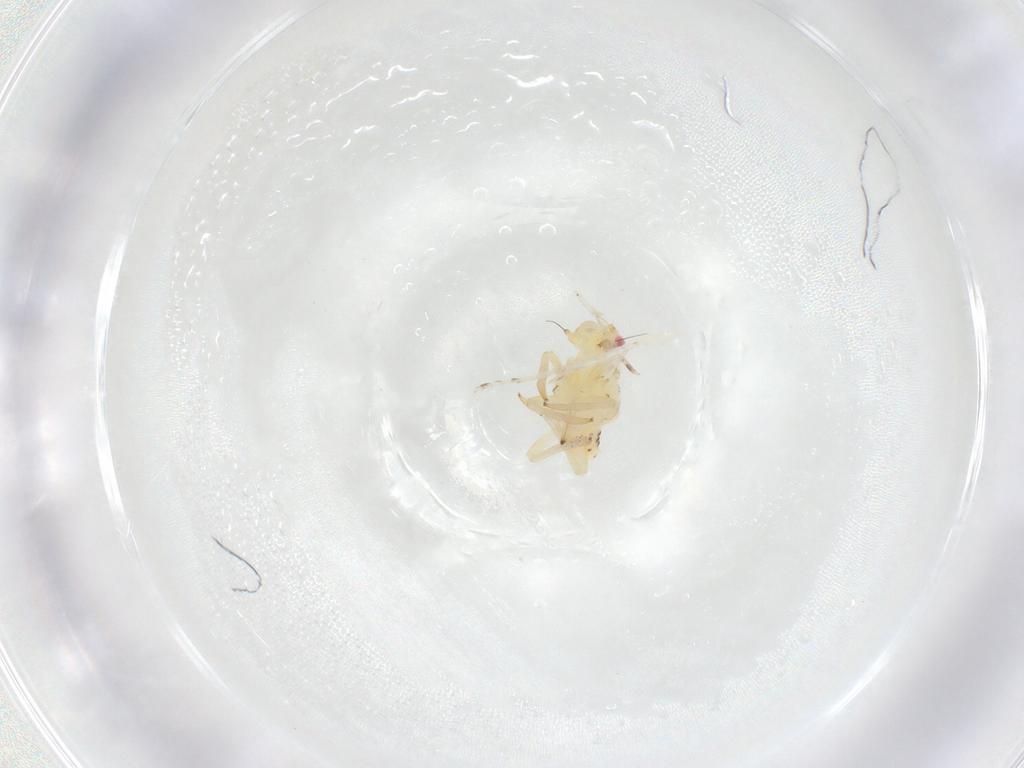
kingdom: Animalia
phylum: Arthropoda
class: Insecta
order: Hemiptera
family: Tropiduchidae
